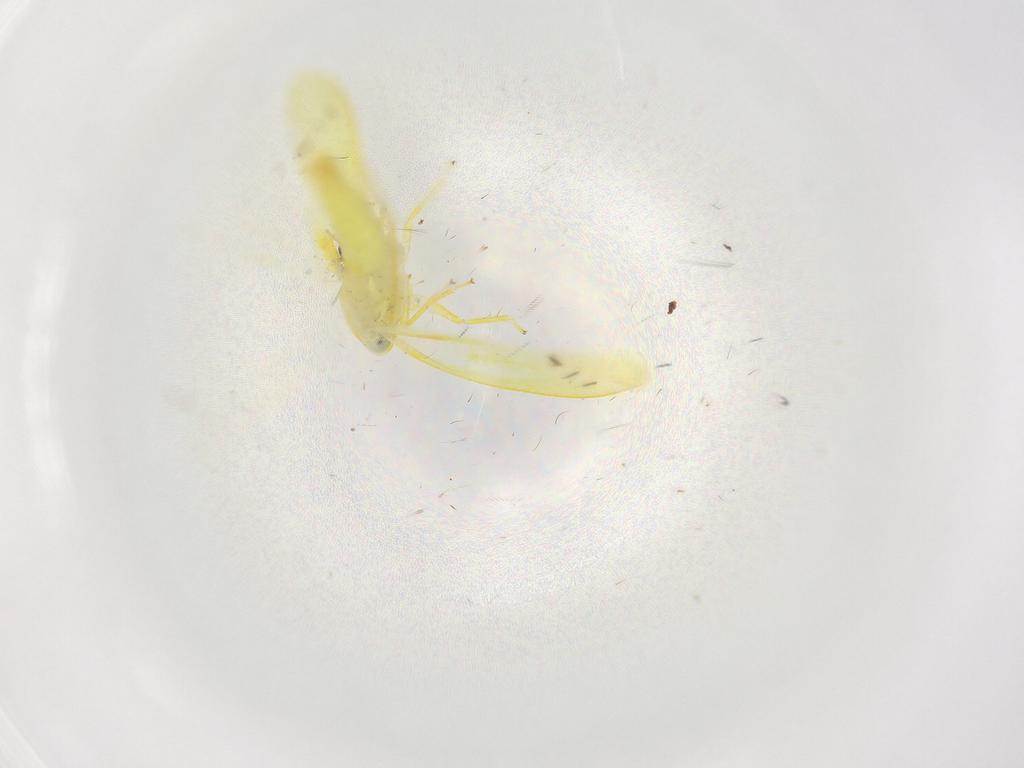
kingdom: Animalia
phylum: Arthropoda
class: Insecta
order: Hemiptera
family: Cicadellidae
